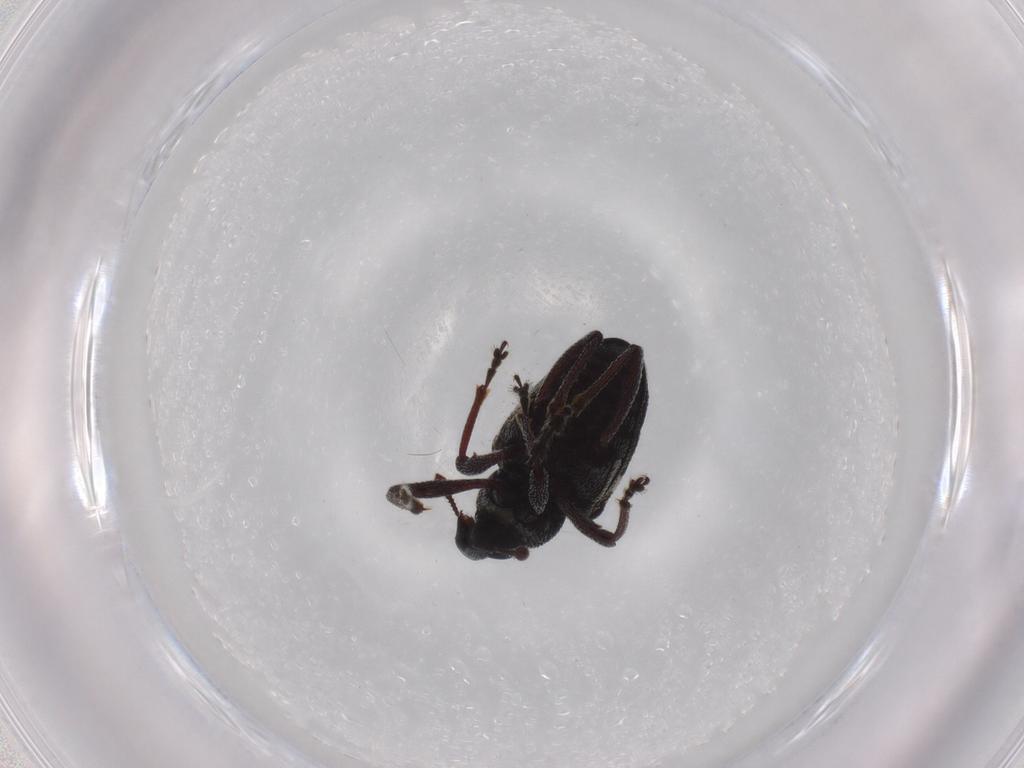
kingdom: Animalia
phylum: Arthropoda
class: Insecta
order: Coleoptera
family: Curculionidae
